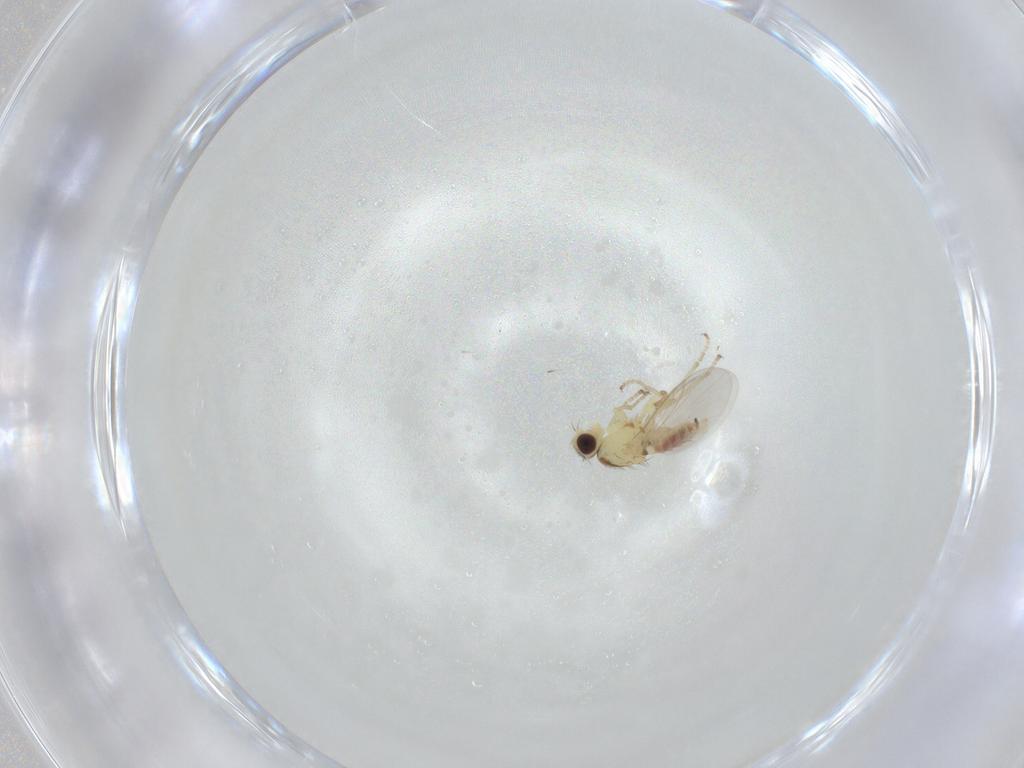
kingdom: Animalia
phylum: Arthropoda
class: Insecta
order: Diptera
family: Agromyzidae
